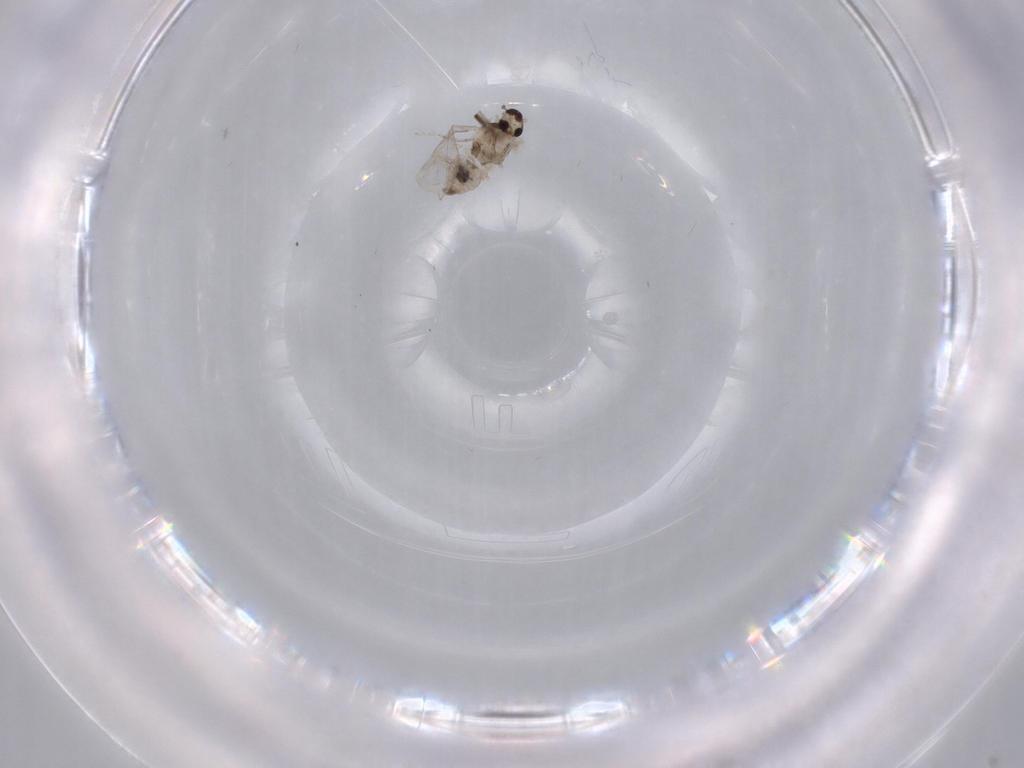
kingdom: Animalia
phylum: Arthropoda
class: Insecta
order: Diptera
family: Cecidomyiidae
